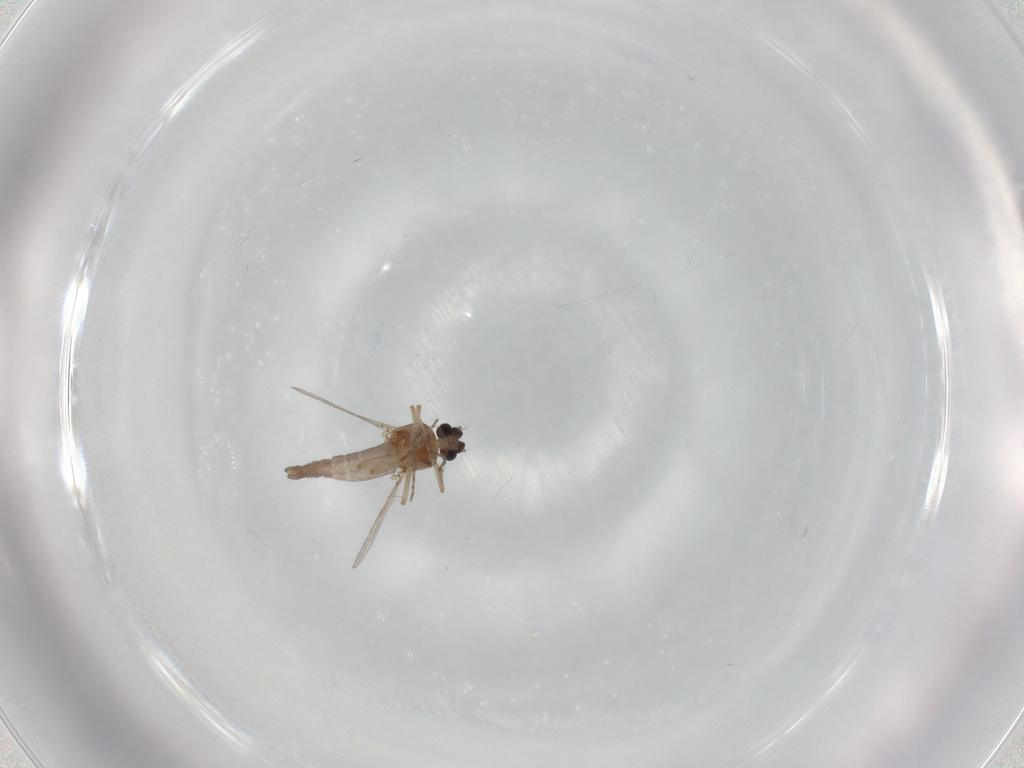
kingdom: Animalia
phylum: Arthropoda
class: Insecta
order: Diptera
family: Ceratopogonidae
